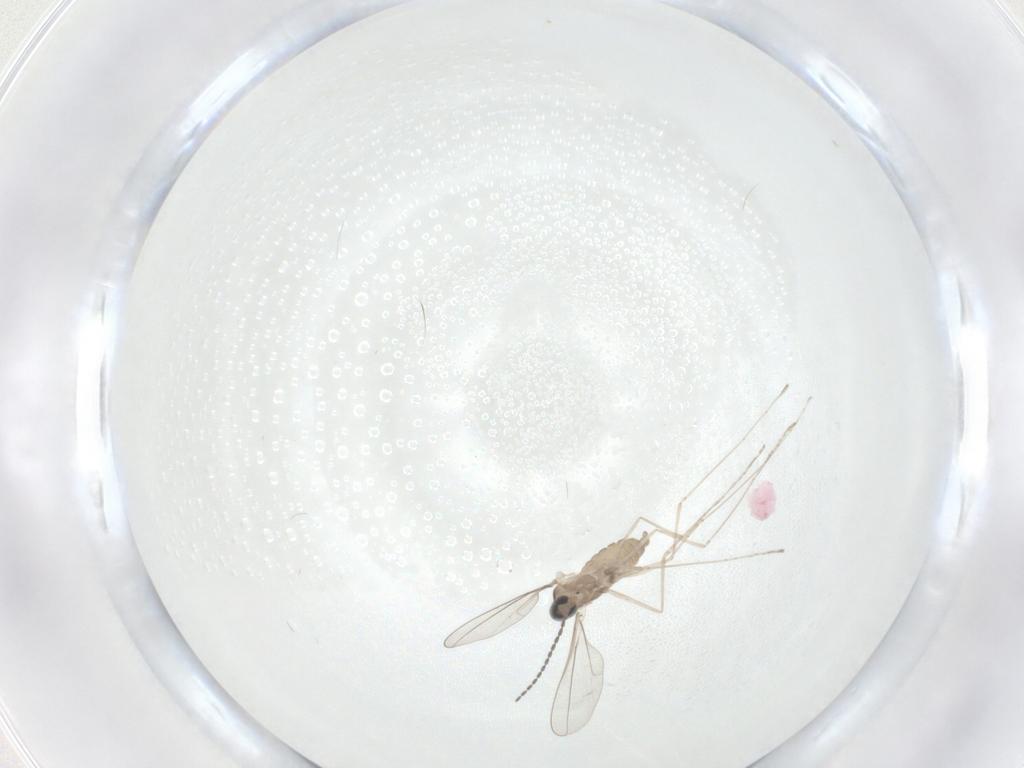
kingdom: Animalia
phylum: Arthropoda
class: Insecta
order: Diptera
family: Cecidomyiidae
